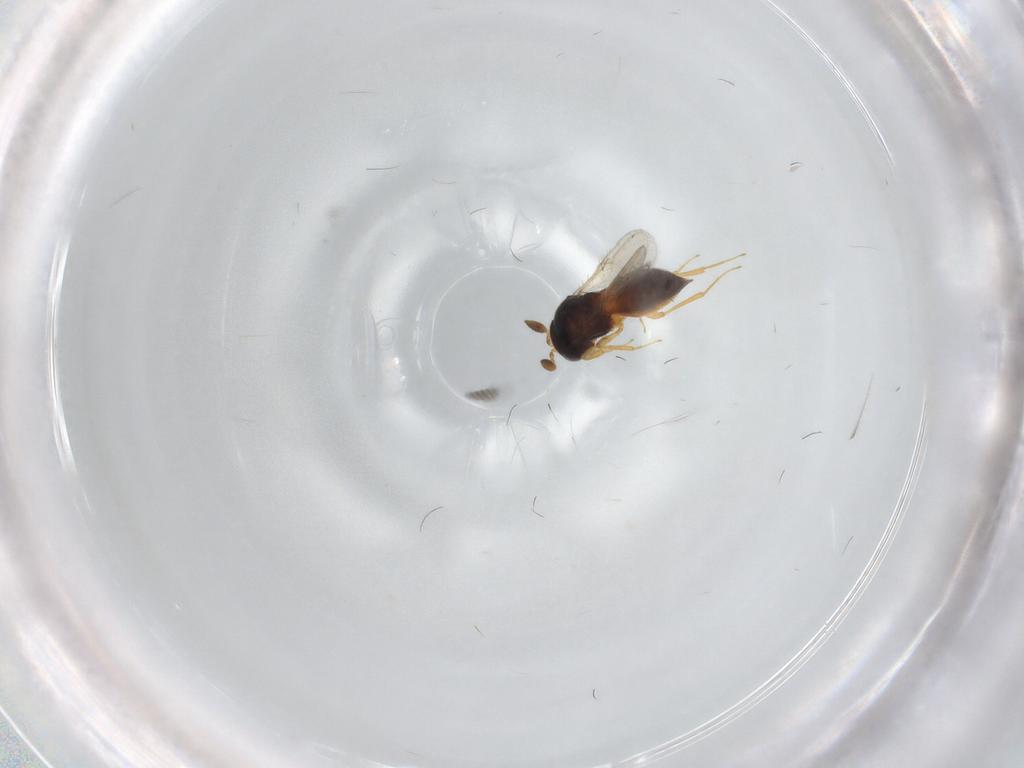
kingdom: Animalia
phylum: Arthropoda
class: Insecta
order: Hymenoptera
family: Scelionidae
